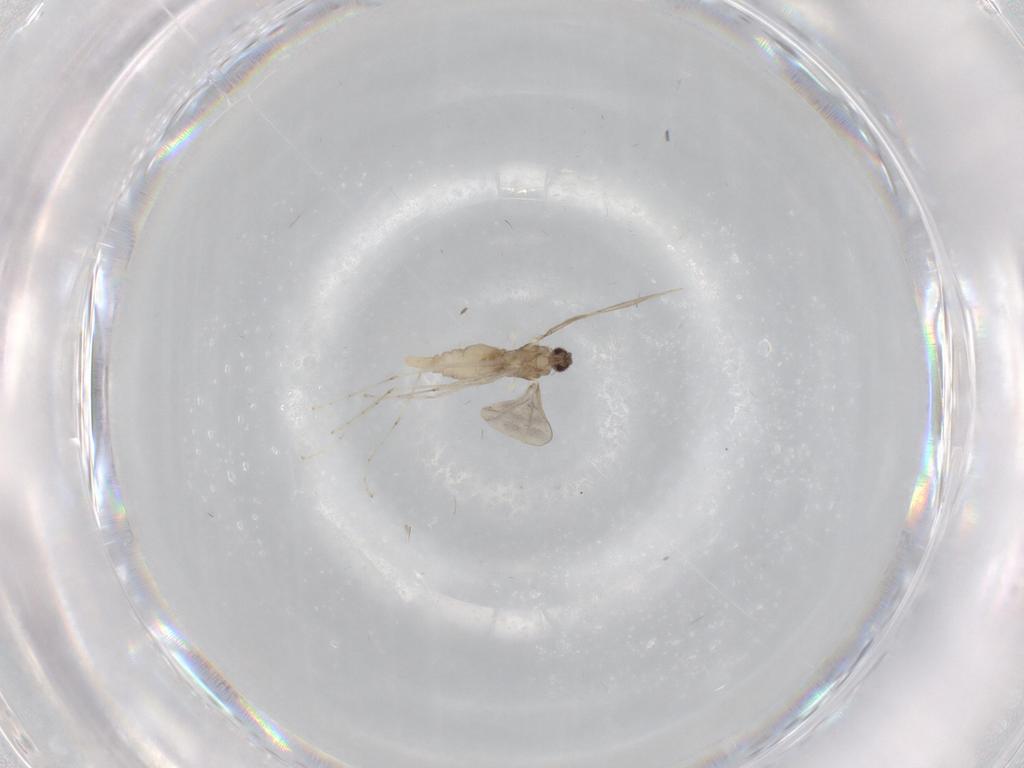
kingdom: Animalia
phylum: Arthropoda
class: Insecta
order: Diptera
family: Cecidomyiidae
